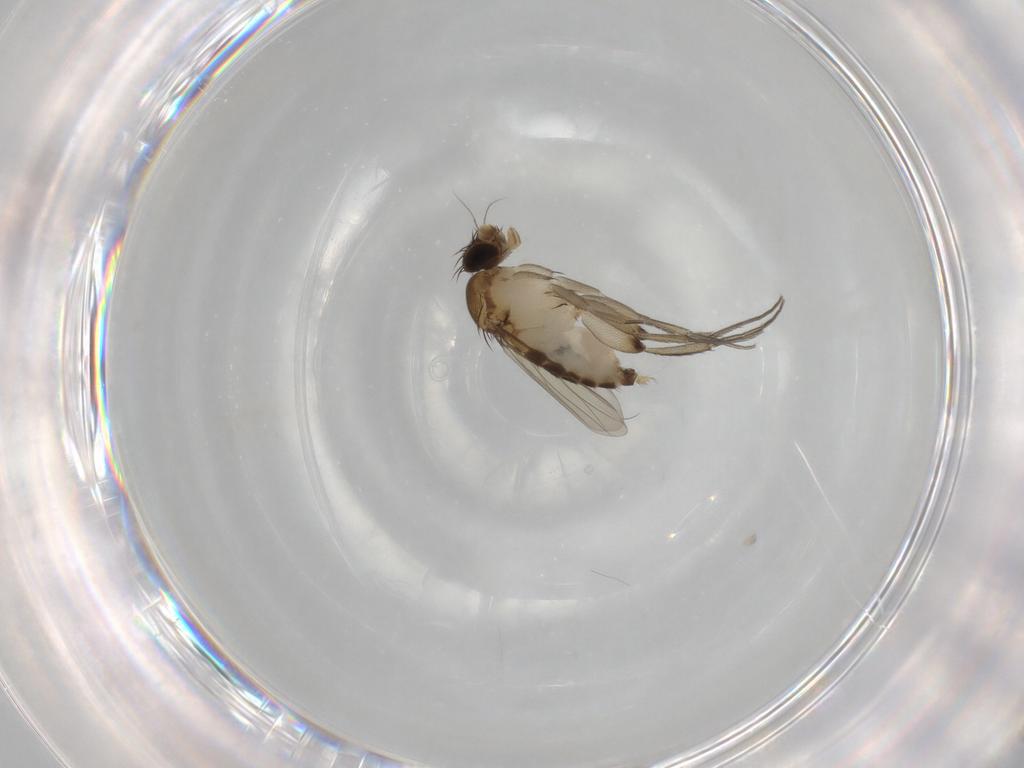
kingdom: Animalia
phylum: Arthropoda
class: Insecta
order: Diptera
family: Phoridae
